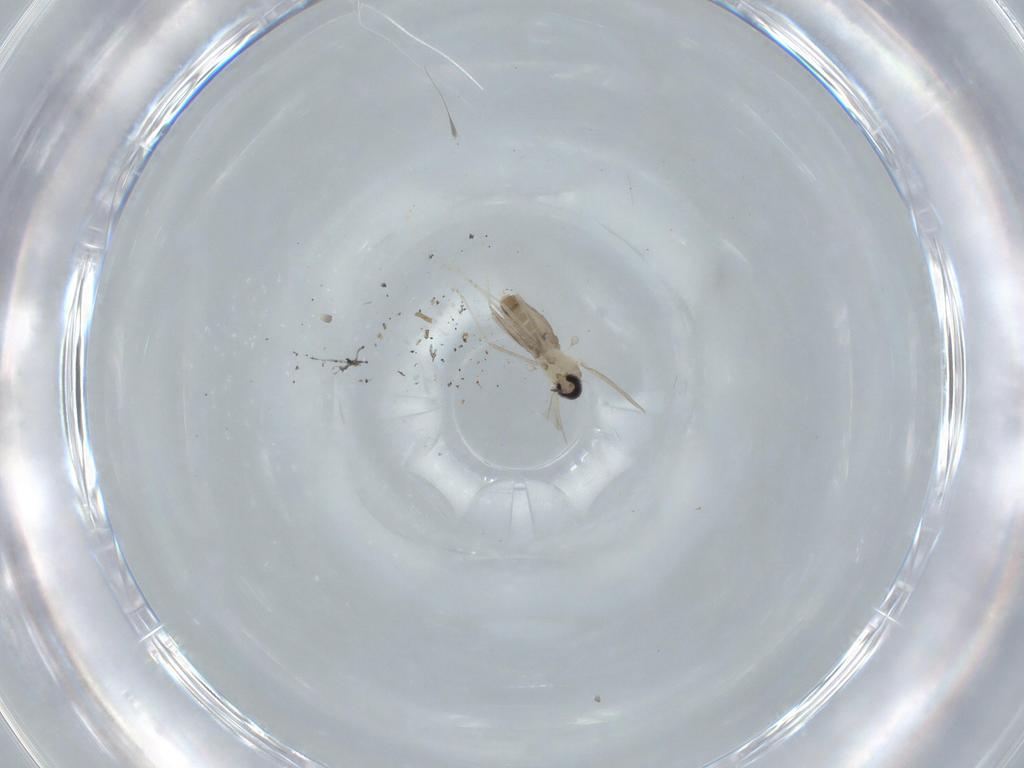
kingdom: Animalia
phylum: Arthropoda
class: Insecta
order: Diptera
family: Cecidomyiidae
